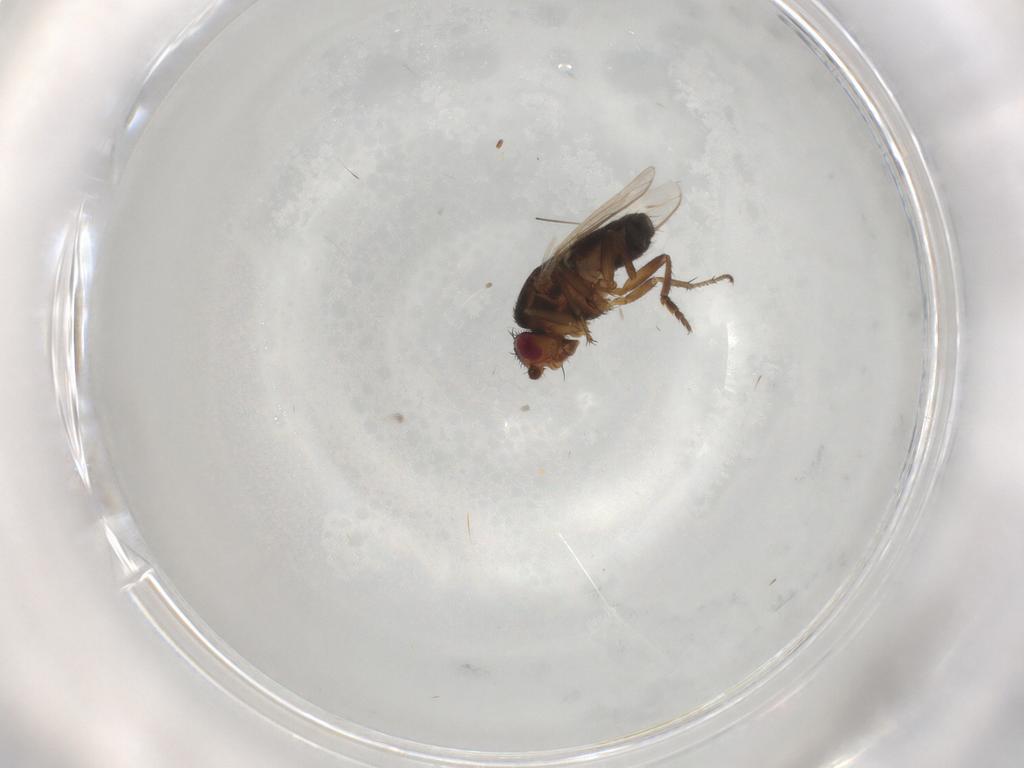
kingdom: Animalia
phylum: Arthropoda
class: Insecta
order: Diptera
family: Sphaeroceridae
